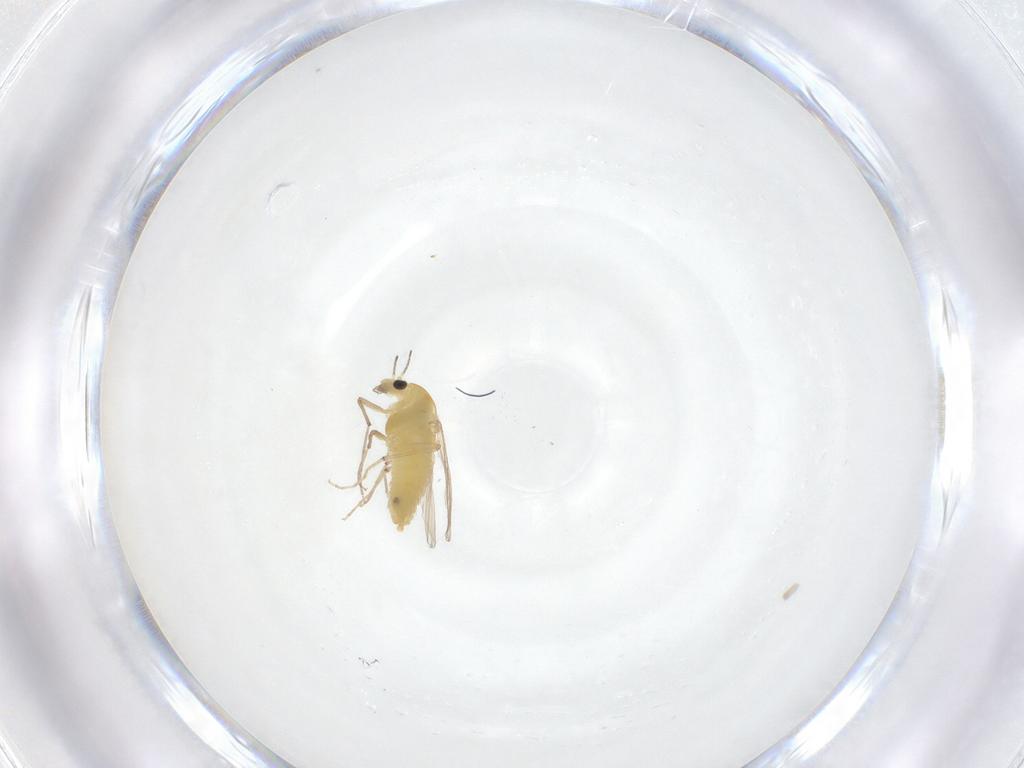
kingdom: Animalia
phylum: Arthropoda
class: Insecta
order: Diptera
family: Chironomidae
